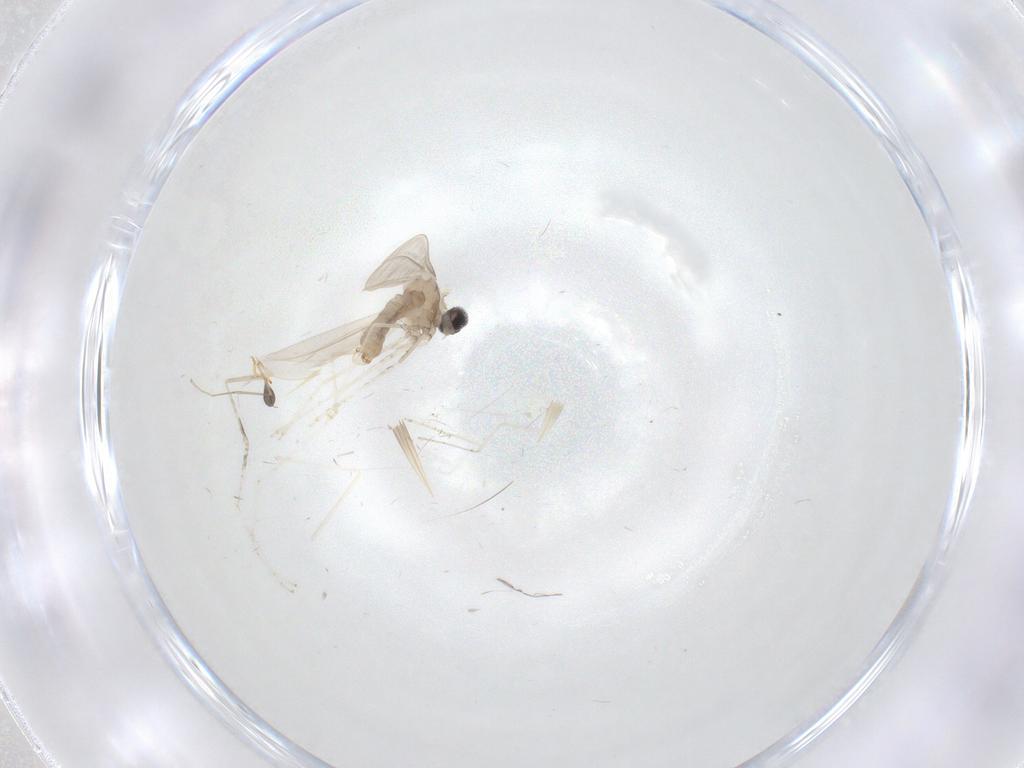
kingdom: Animalia
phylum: Arthropoda
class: Insecta
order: Diptera
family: Cecidomyiidae
